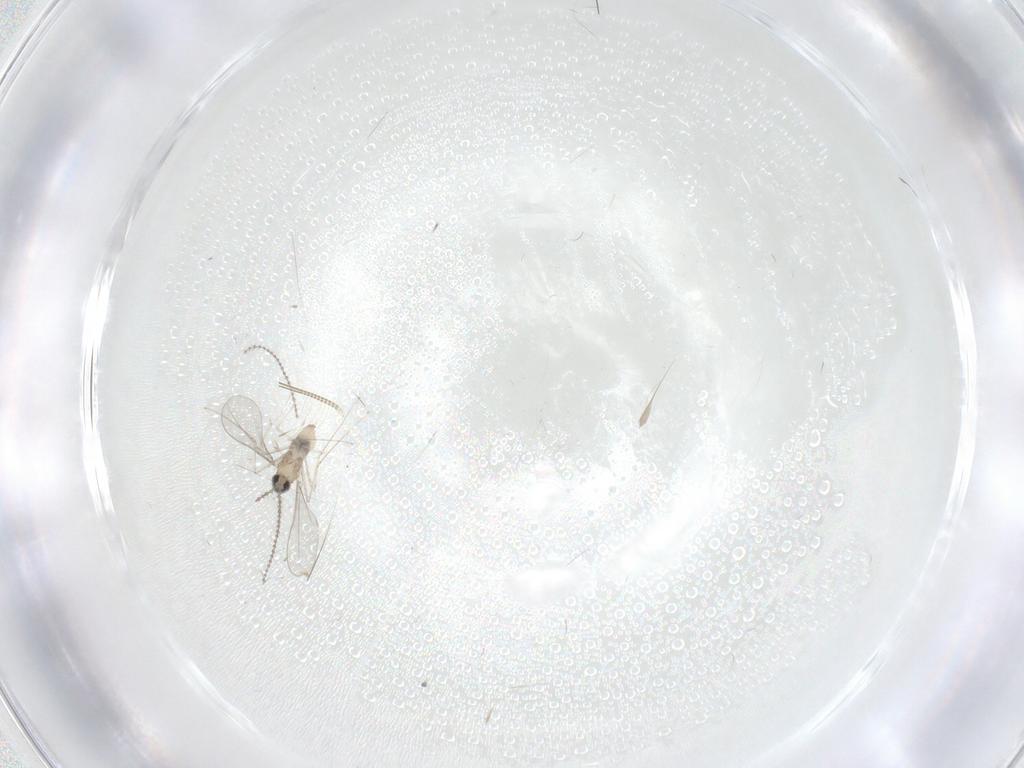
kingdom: Animalia
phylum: Arthropoda
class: Insecta
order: Diptera
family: Cecidomyiidae
